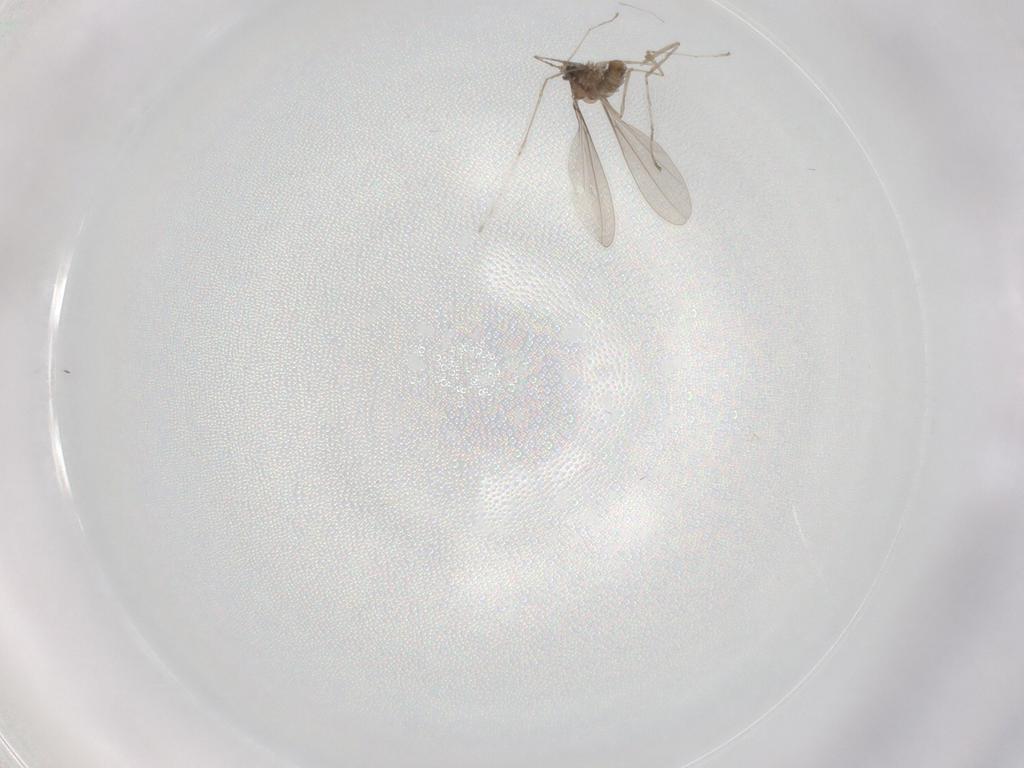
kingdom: Animalia
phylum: Arthropoda
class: Insecta
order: Diptera
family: Cecidomyiidae
